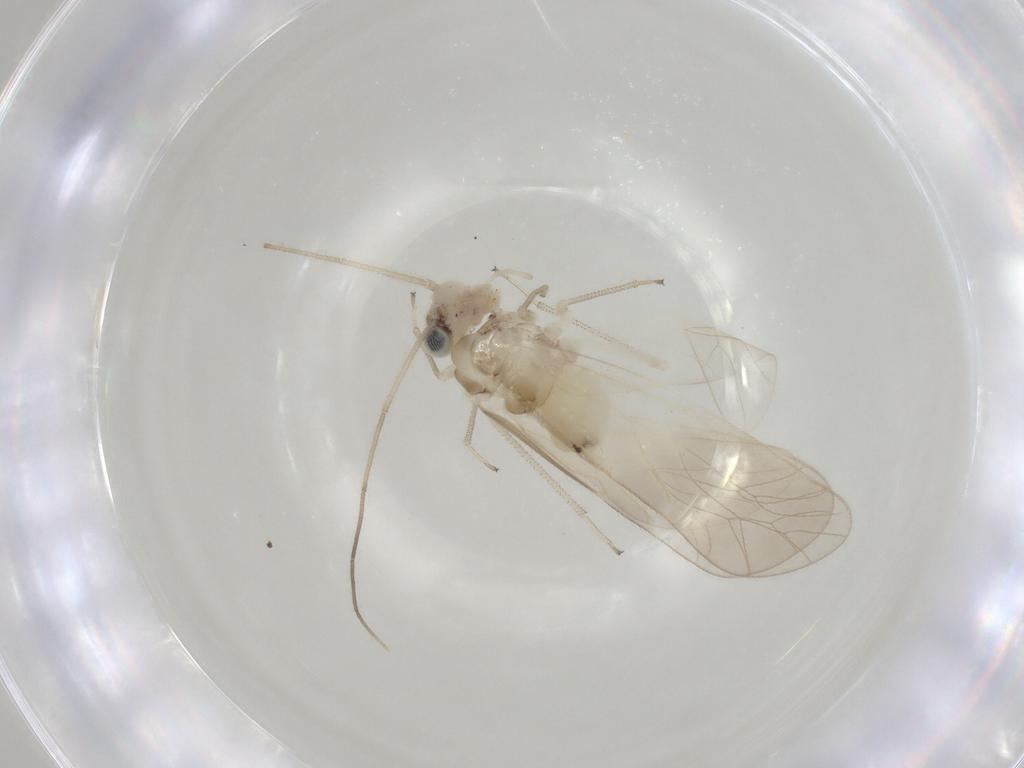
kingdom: Animalia
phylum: Arthropoda
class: Insecta
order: Psocodea
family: Caeciliusidae
